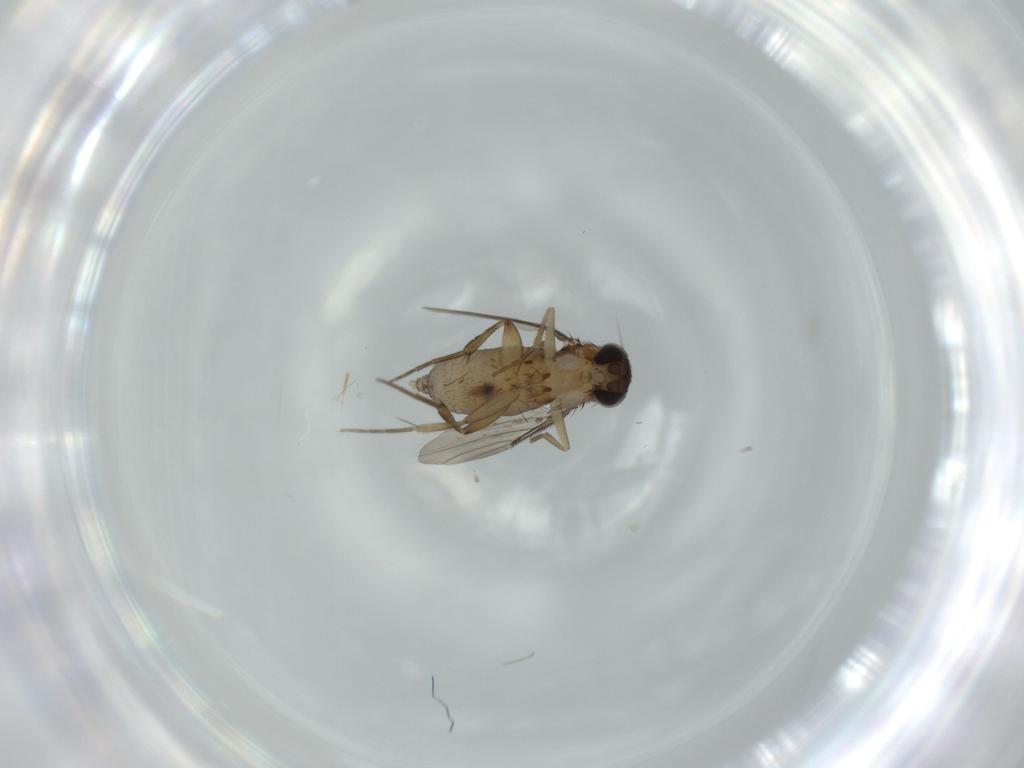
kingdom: Animalia
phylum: Arthropoda
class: Insecta
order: Diptera
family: Phoridae
